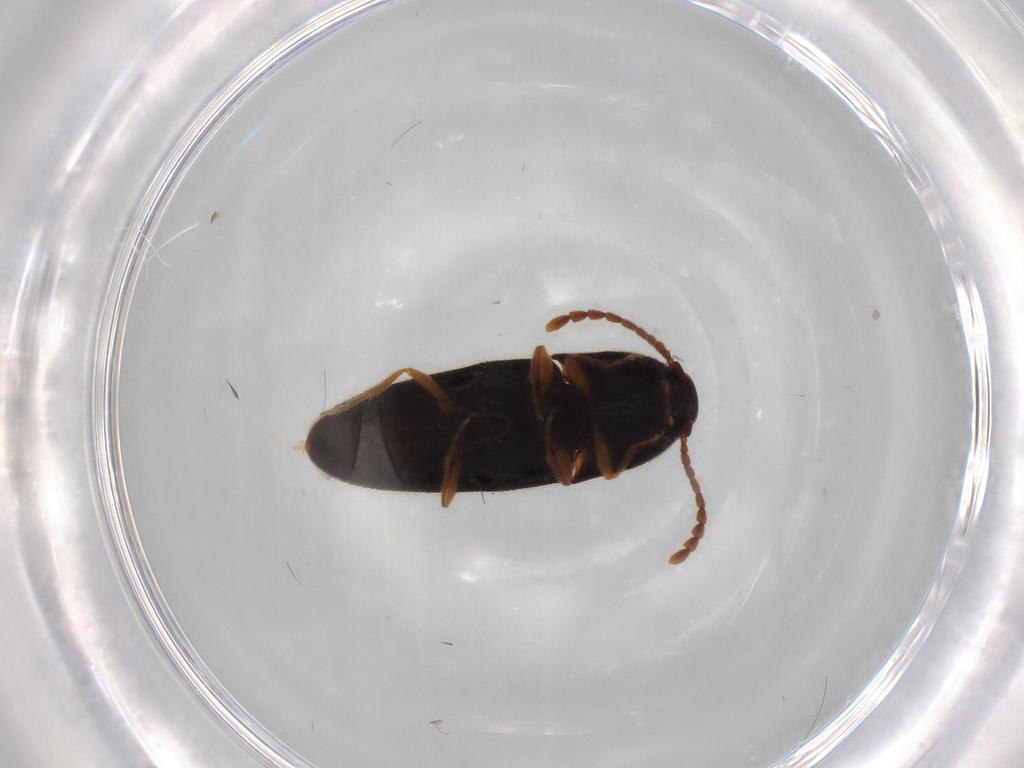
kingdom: Animalia
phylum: Arthropoda
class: Insecta
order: Coleoptera
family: Elateridae
